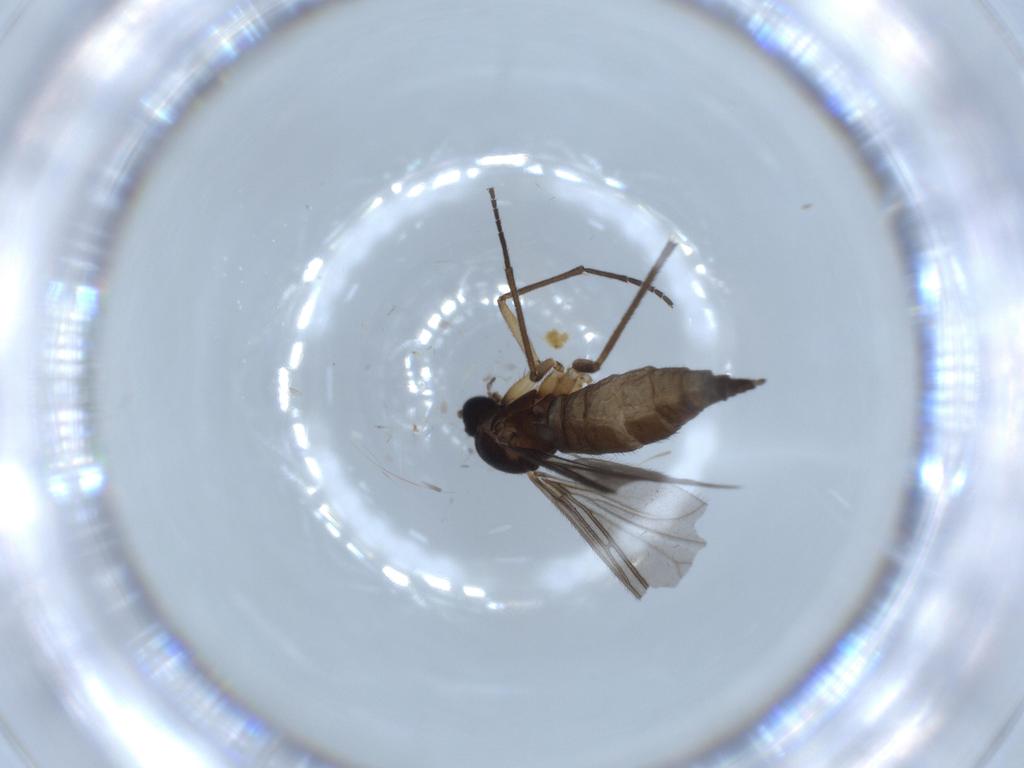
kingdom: Animalia
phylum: Arthropoda
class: Insecta
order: Diptera
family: Sciaridae
